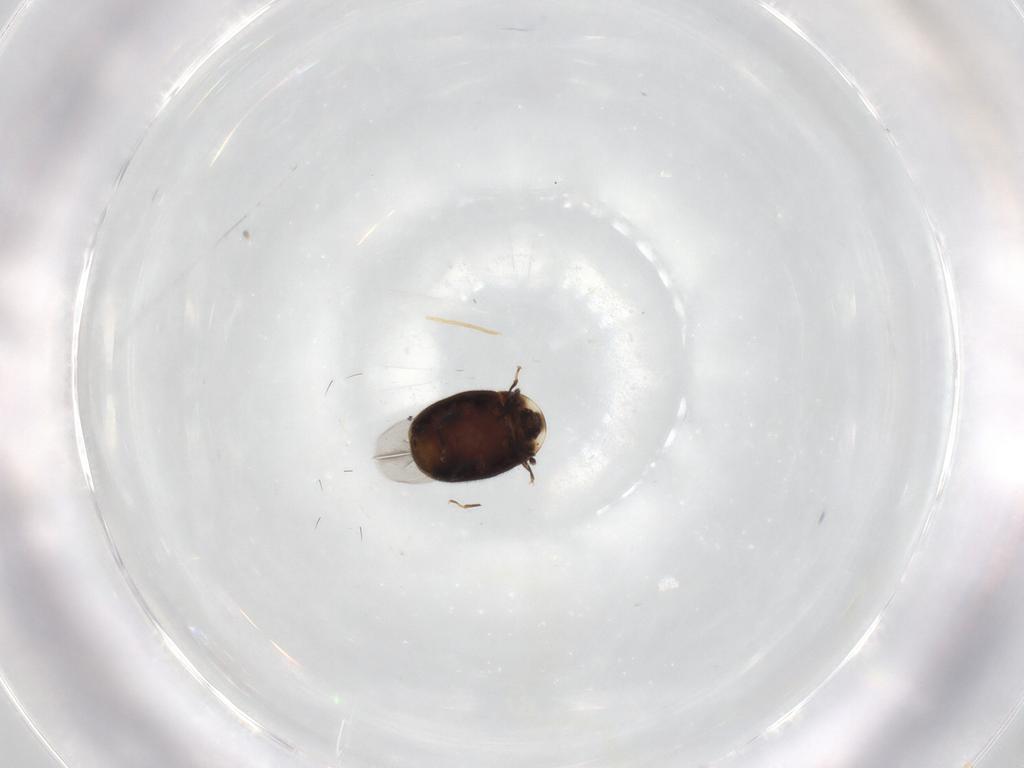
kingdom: Animalia
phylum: Arthropoda
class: Insecta
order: Coleoptera
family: Corylophidae
